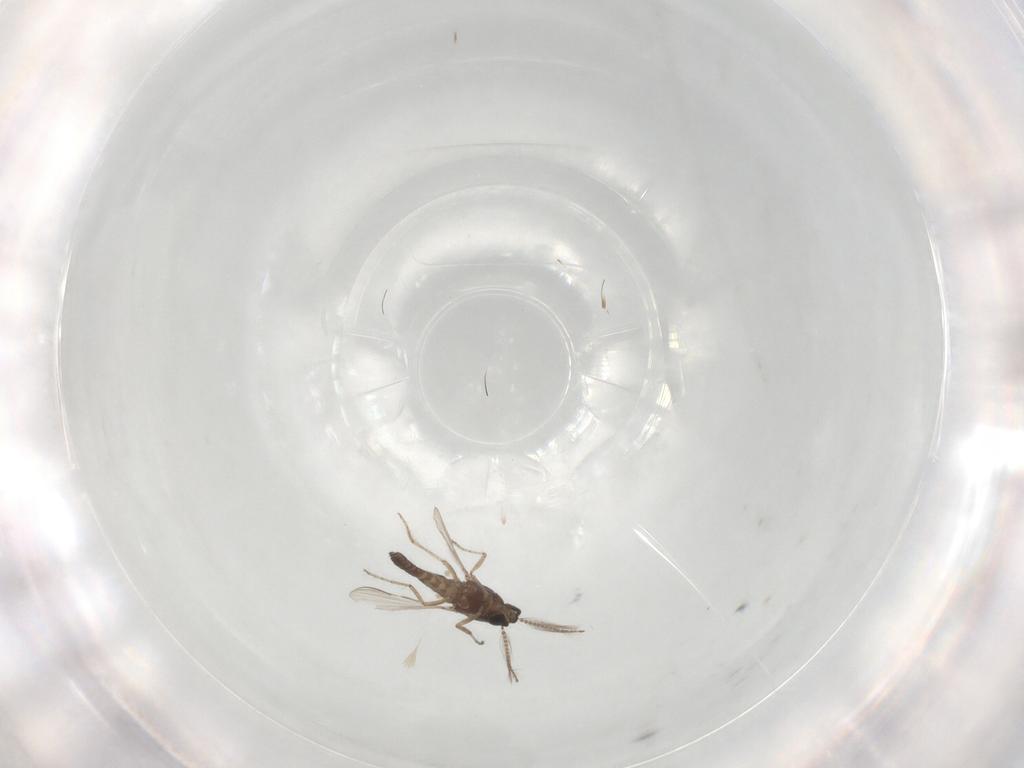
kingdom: Animalia
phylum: Arthropoda
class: Insecta
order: Diptera
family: Ceratopogonidae
